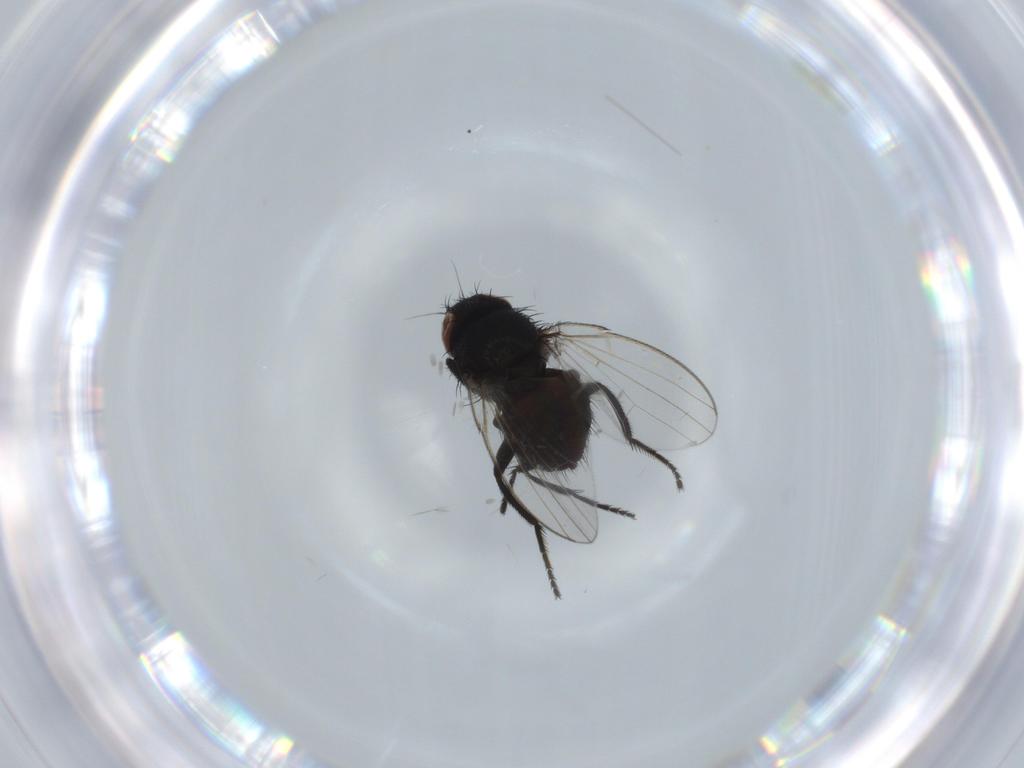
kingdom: Animalia
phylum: Arthropoda
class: Insecta
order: Diptera
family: Milichiidae
